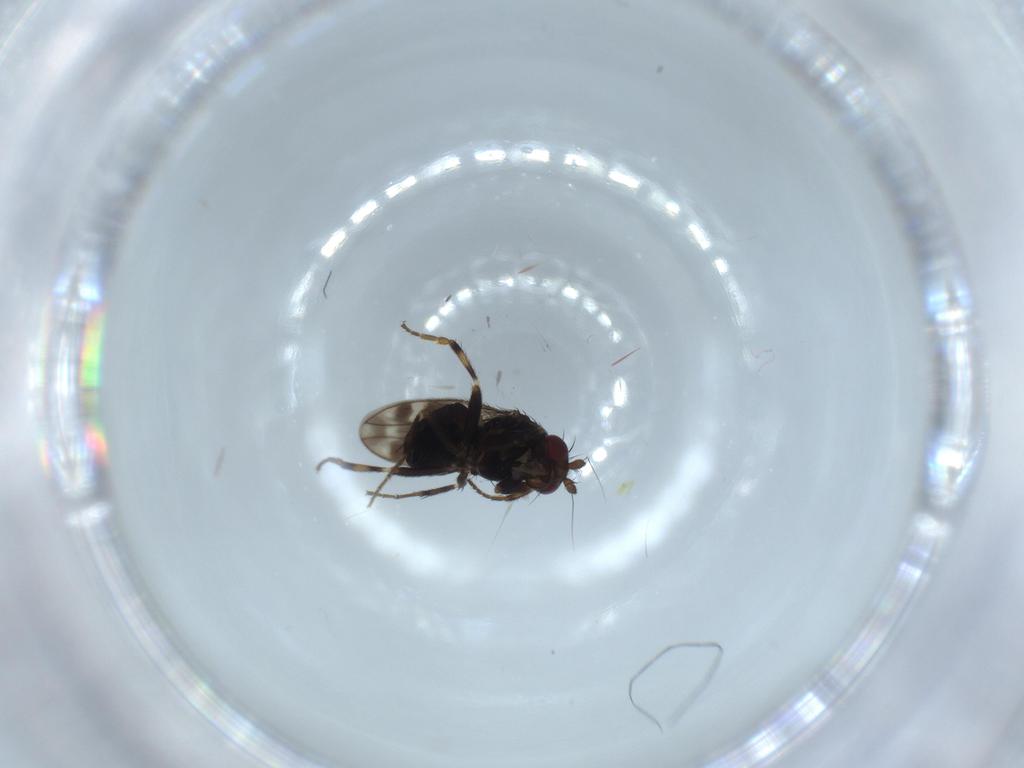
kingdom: Animalia
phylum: Arthropoda
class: Insecta
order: Diptera
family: Sphaeroceridae
